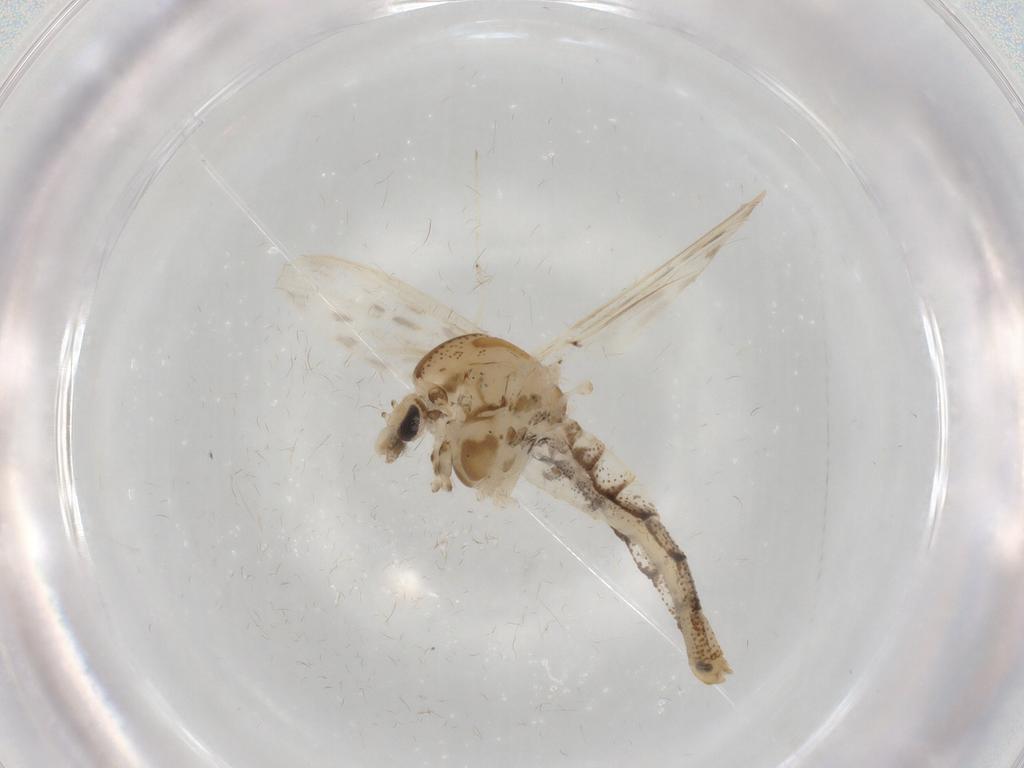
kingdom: Animalia
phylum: Arthropoda
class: Insecta
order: Diptera
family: Chaoboridae
